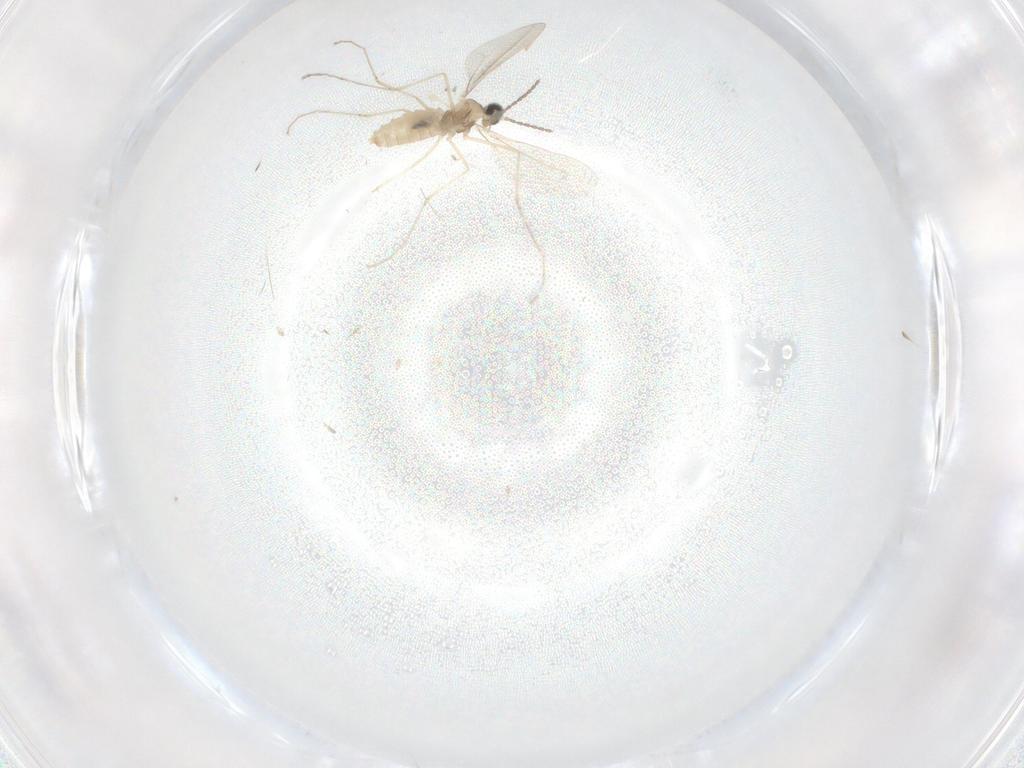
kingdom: Animalia
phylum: Arthropoda
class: Insecta
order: Diptera
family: Cecidomyiidae
